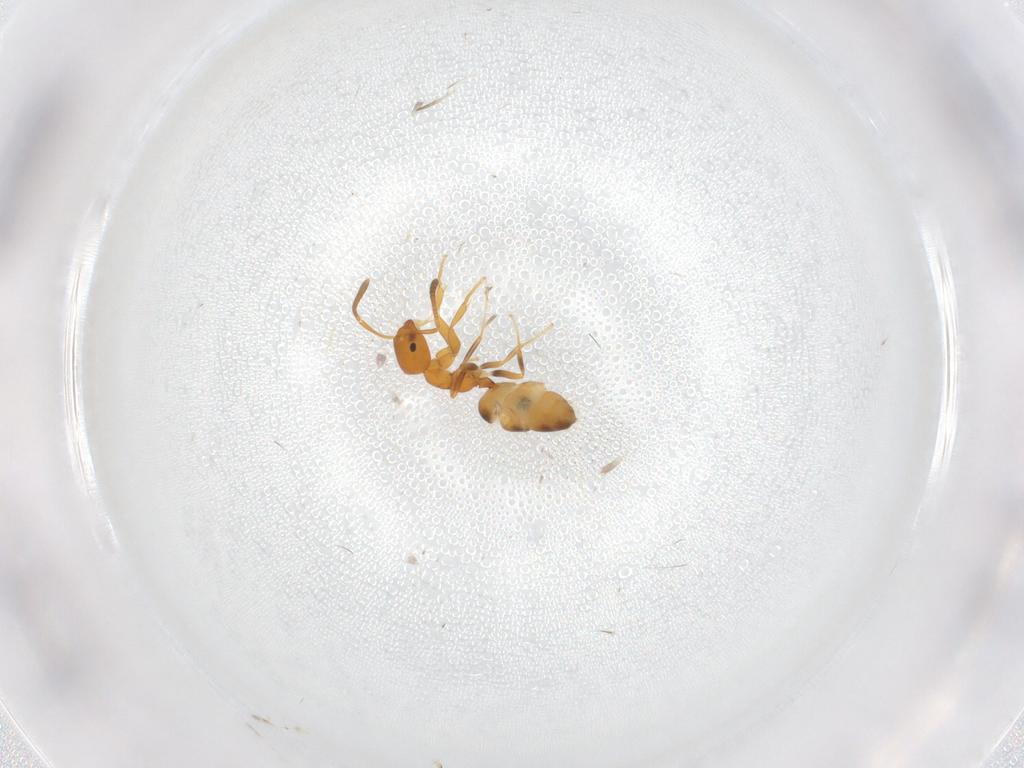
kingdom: Animalia
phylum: Arthropoda
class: Insecta
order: Hymenoptera
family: Formicidae
